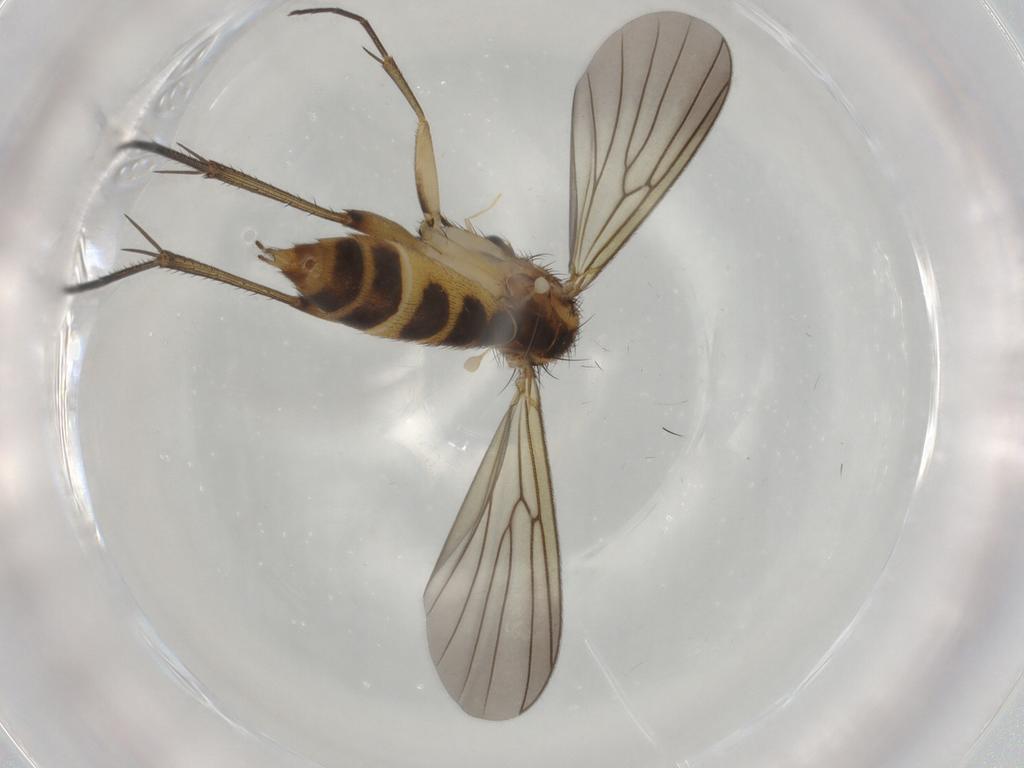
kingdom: Animalia
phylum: Arthropoda
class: Insecta
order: Diptera
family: Mycetophilidae
